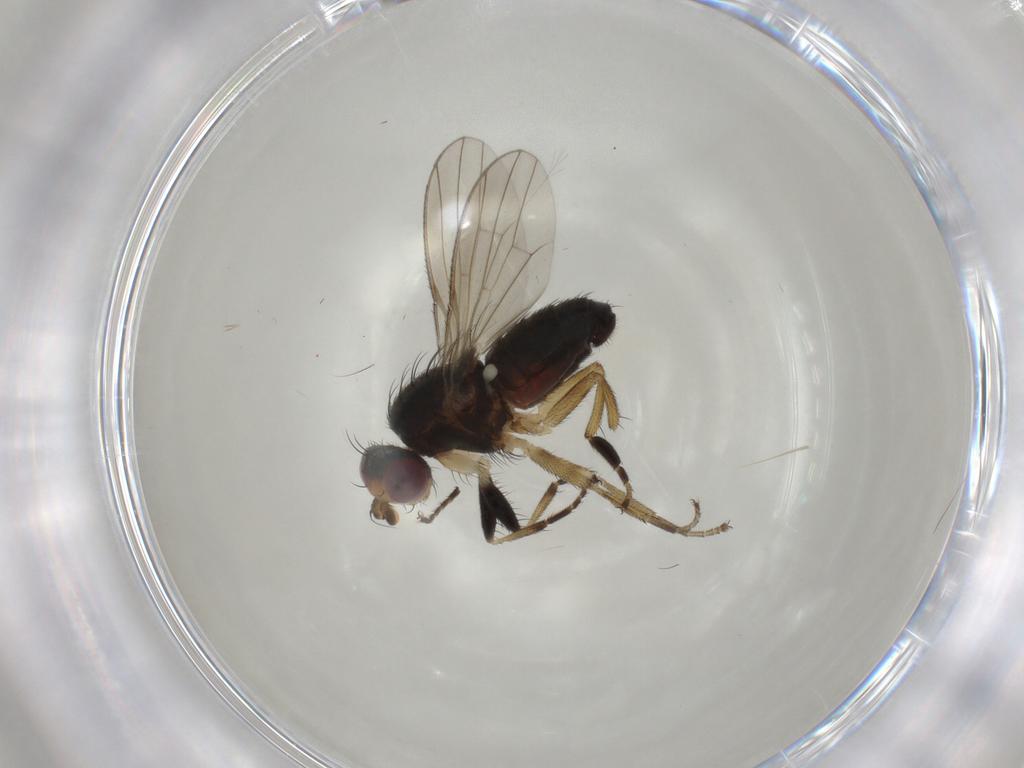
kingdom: Animalia
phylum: Arthropoda
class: Insecta
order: Diptera
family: Heleomyzidae
